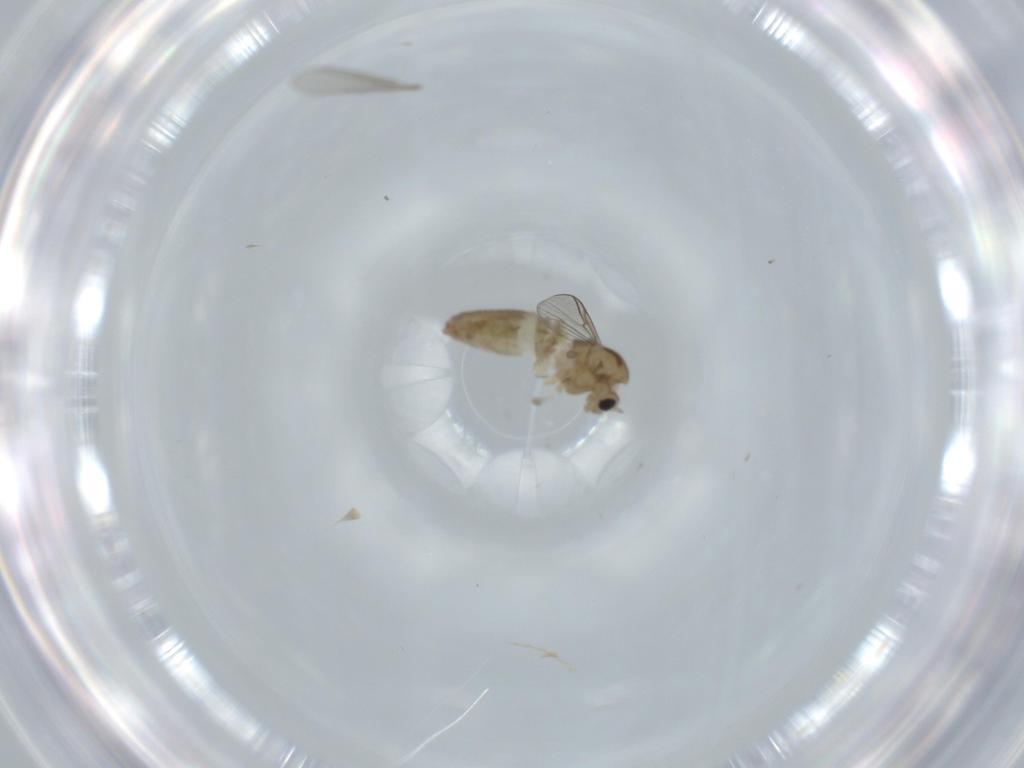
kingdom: Animalia
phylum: Arthropoda
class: Insecta
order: Diptera
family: Chironomidae
